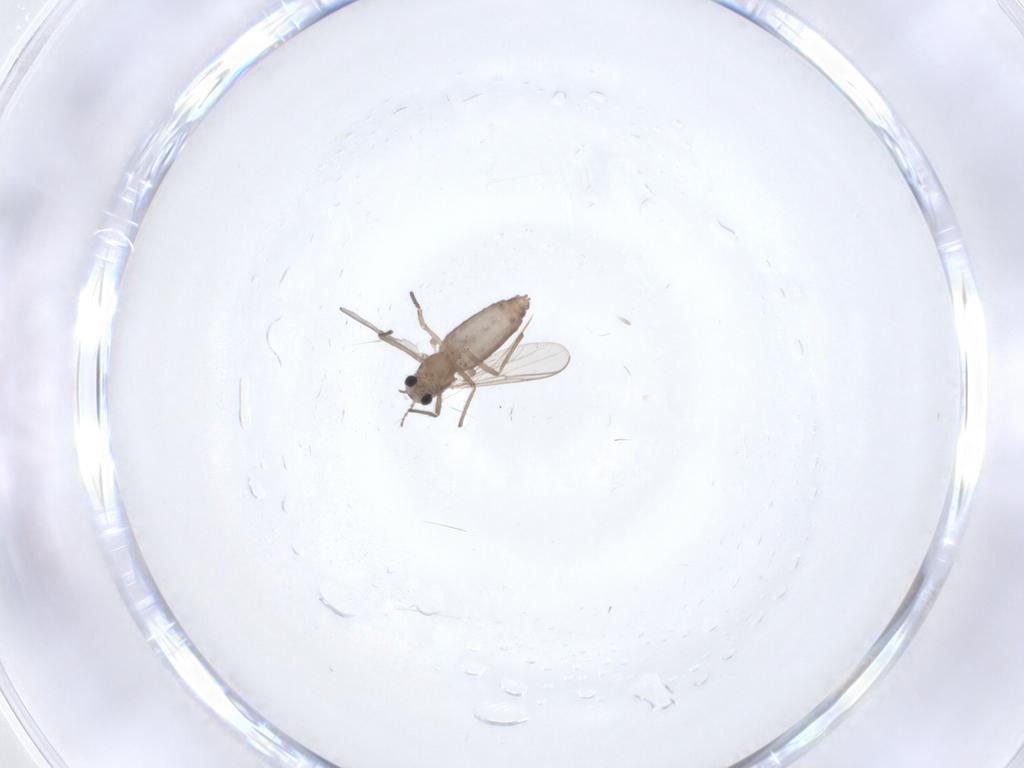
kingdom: Animalia
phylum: Arthropoda
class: Insecta
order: Diptera
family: Chironomidae
